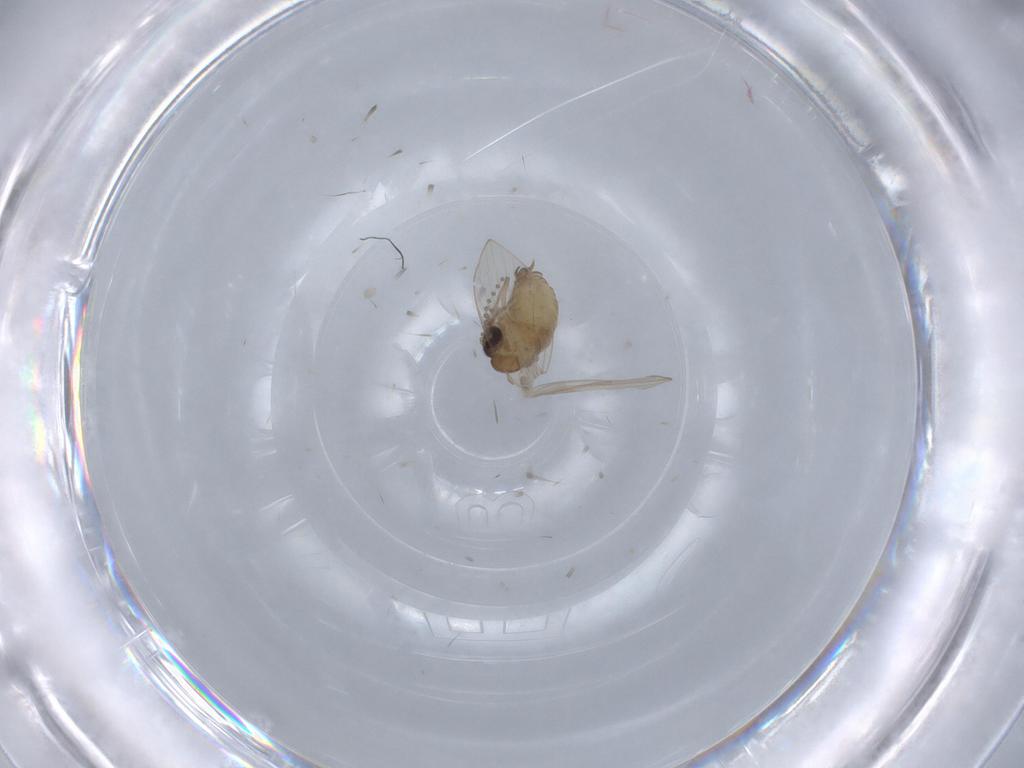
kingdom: Animalia
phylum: Arthropoda
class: Insecta
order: Diptera
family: Psychodidae
